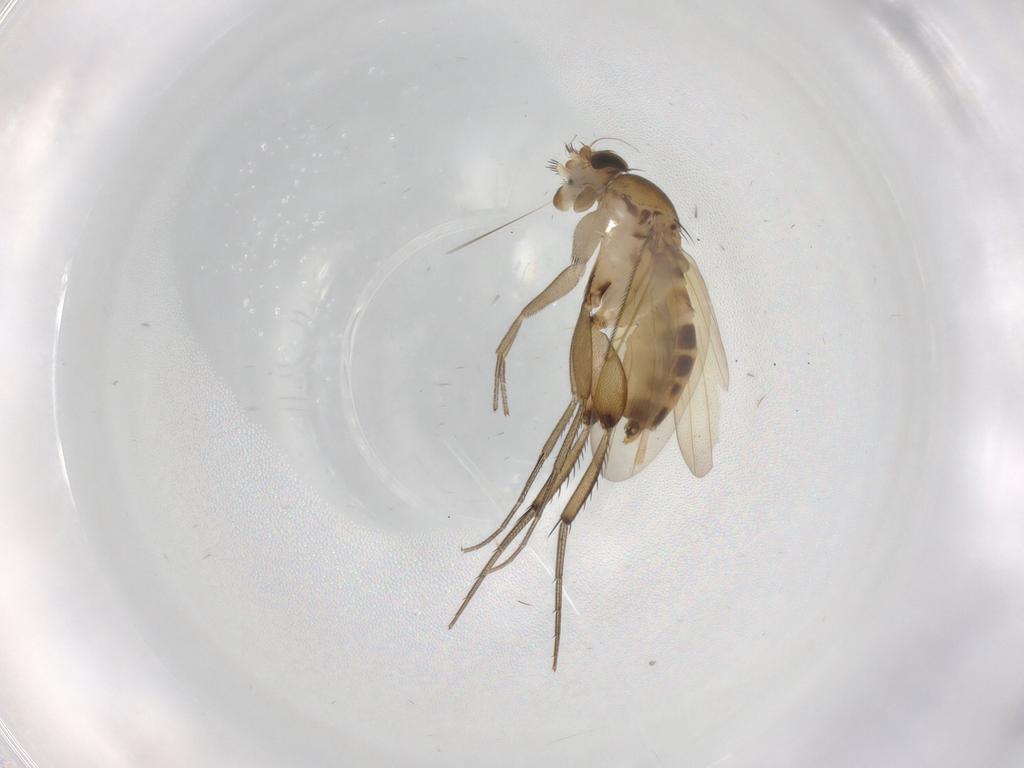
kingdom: Animalia
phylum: Arthropoda
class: Insecta
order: Diptera
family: Phoridae
